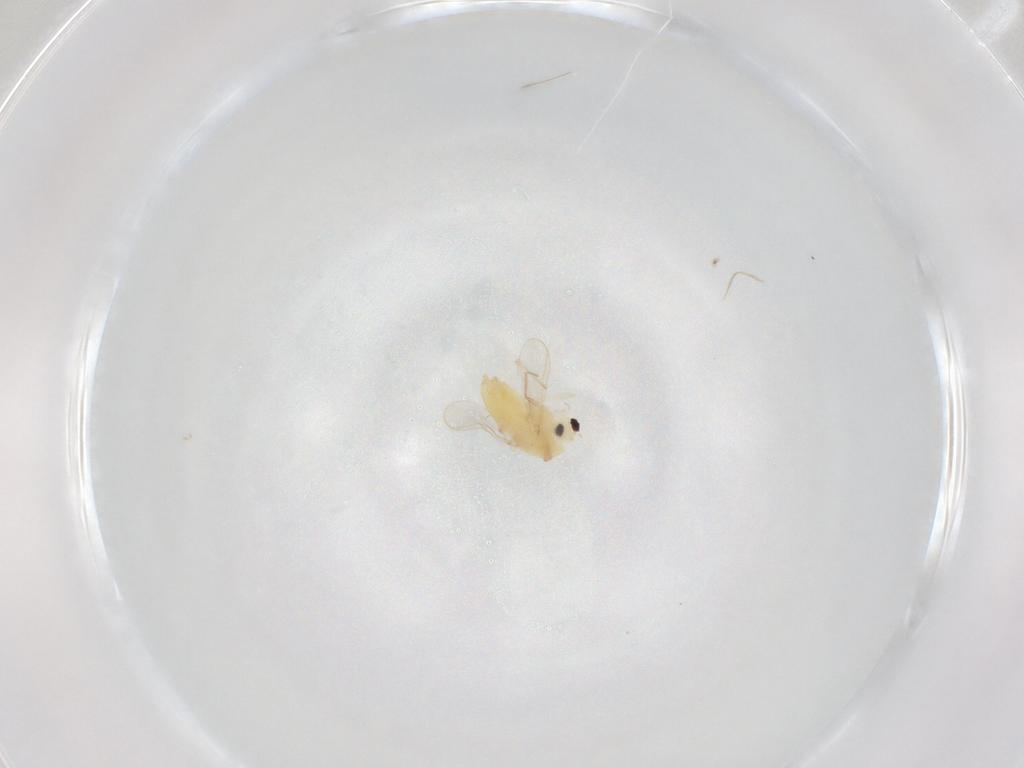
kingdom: Animalia
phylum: Arthropoda
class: Insecta
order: Diptera
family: Chironomidae
